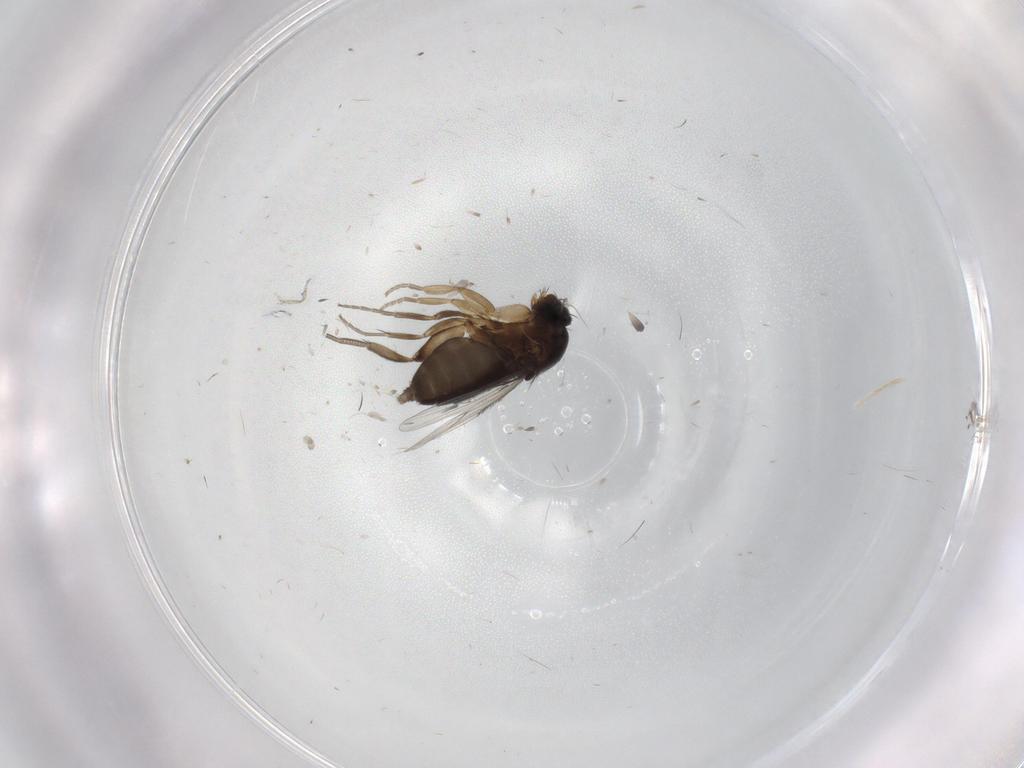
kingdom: Animalia
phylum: Arthropoda
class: Insecta
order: Diptera
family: Phoridae
